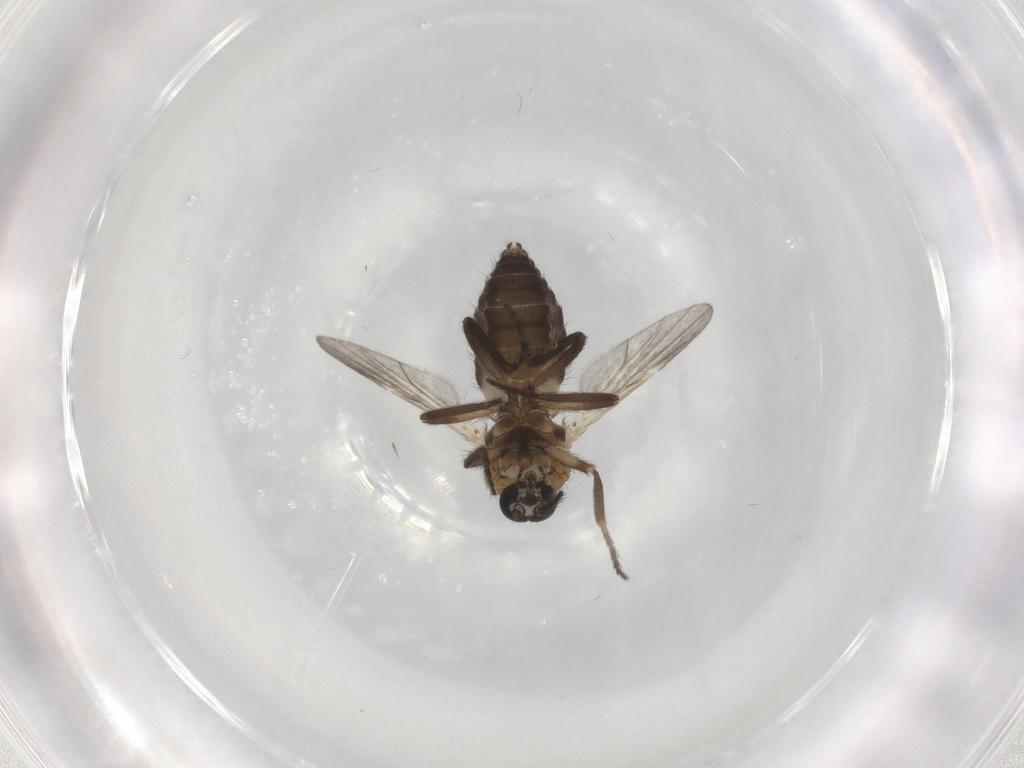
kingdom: Animalia
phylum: Arthropoda
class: Insecta
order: Diptera
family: Ceratopogonidae
